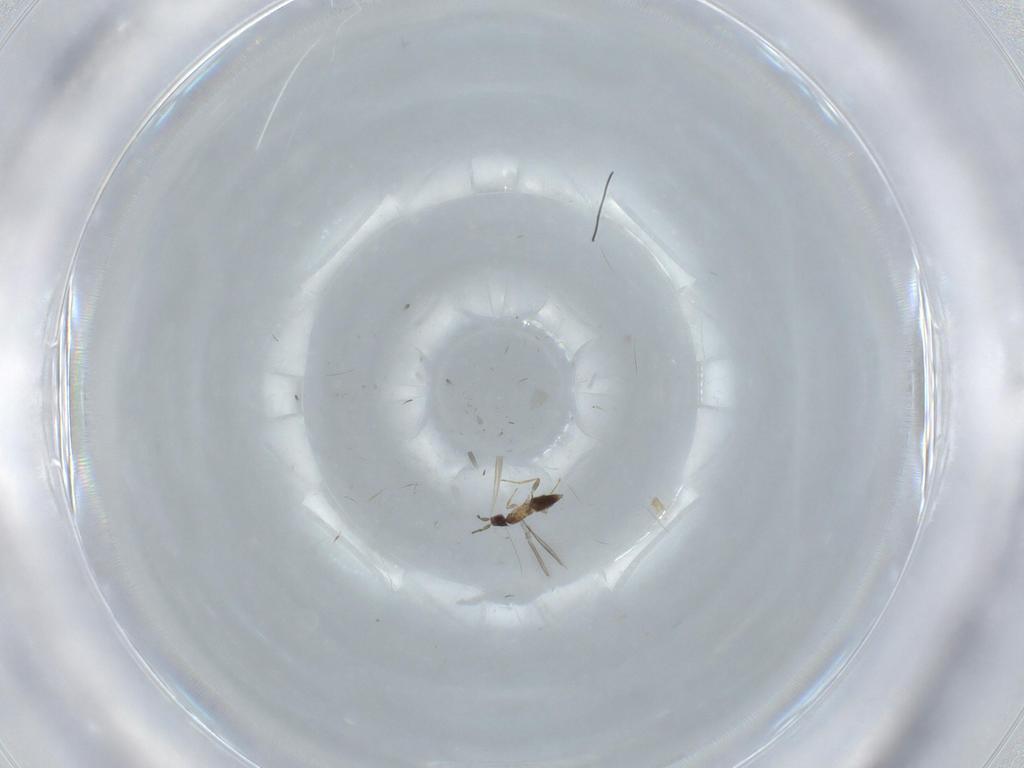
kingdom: Animalia
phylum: Arthropoda
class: Insecta
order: Hymenoptera
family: Mymaridae
